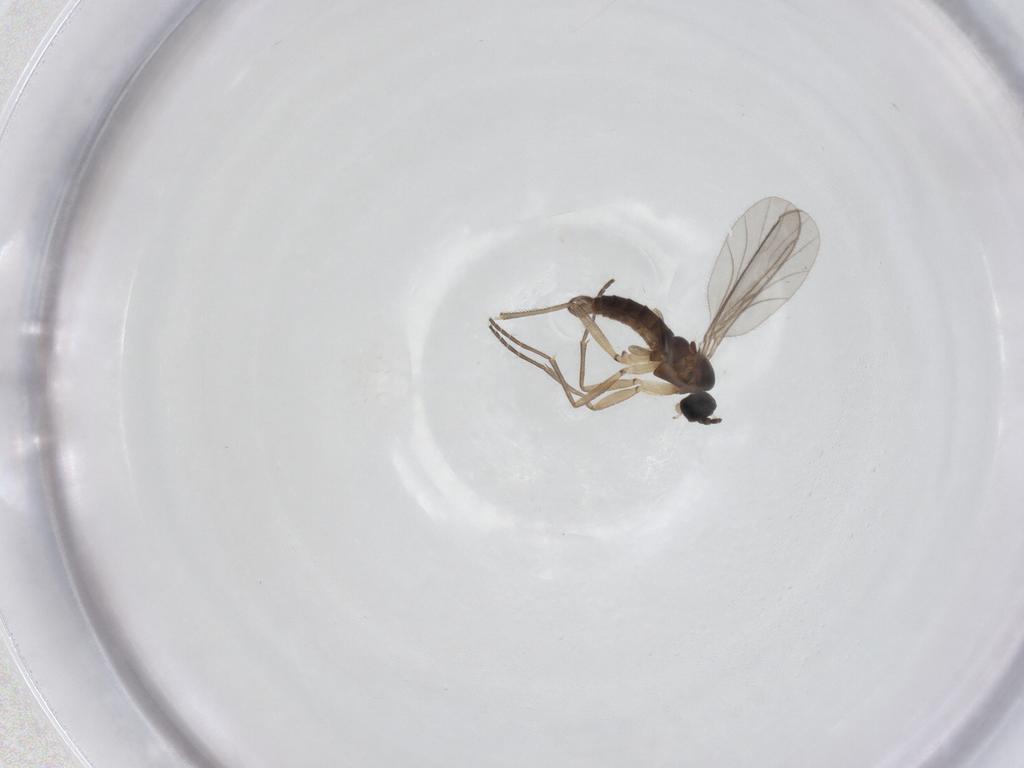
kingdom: Animalia
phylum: Arthropoda
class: Insecta
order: Diptera
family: Sciaridae
